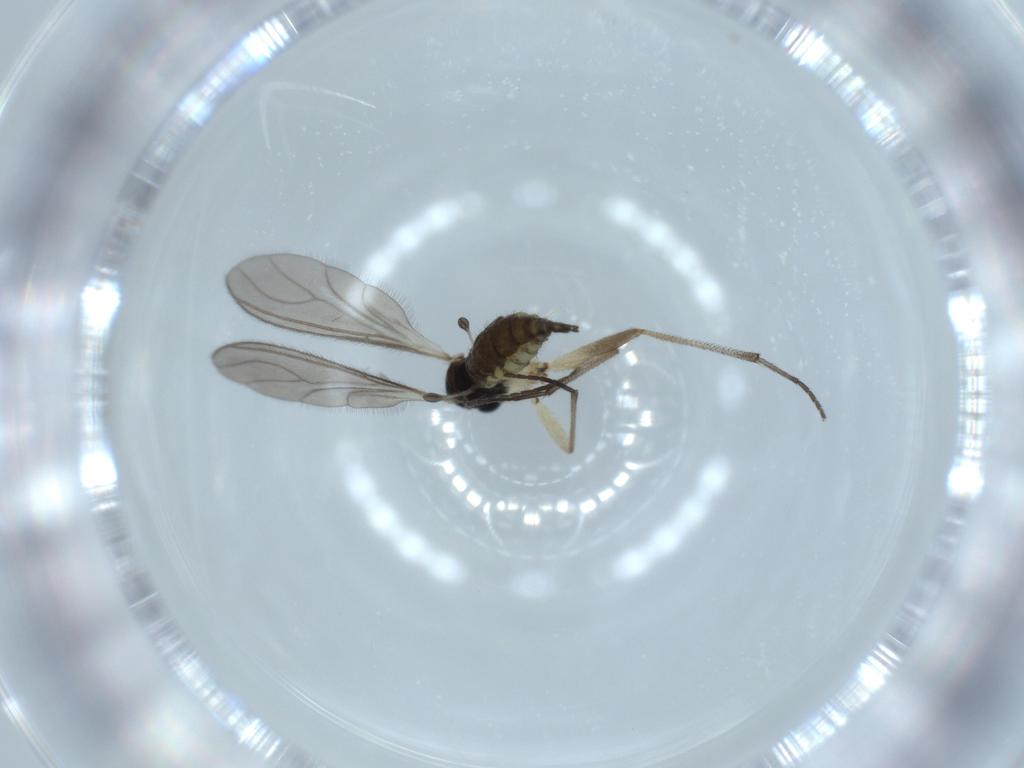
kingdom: Animalia
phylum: Arthropoda
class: Insecta
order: Diptera
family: Sciaridae
